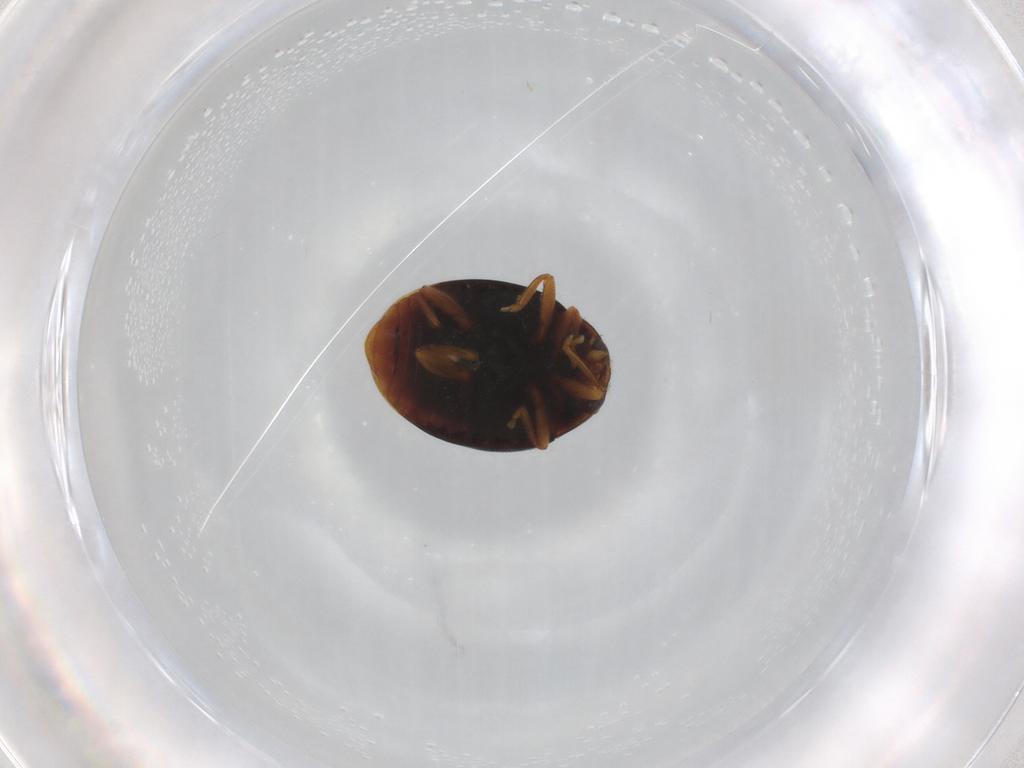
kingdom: Animalia
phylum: Arthropoda
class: Insecta
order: Coleoptera
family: Coccinellidae
